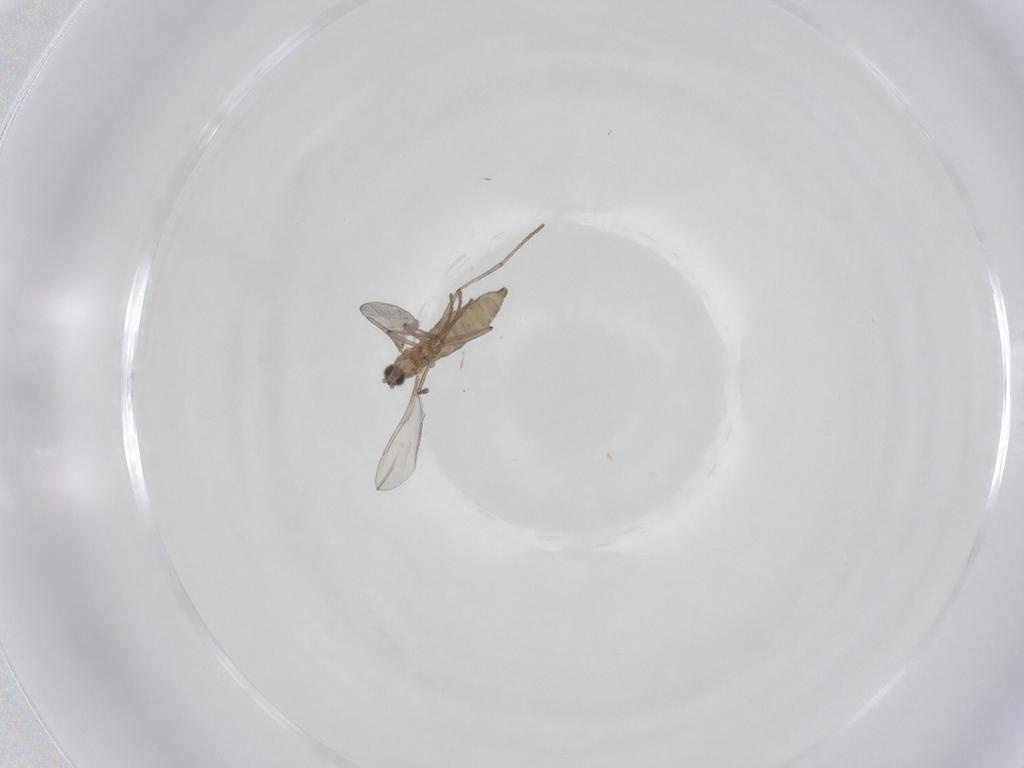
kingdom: Animalia
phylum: Arthropoda
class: Insecta
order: Diptera
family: Cecidomyiidae
